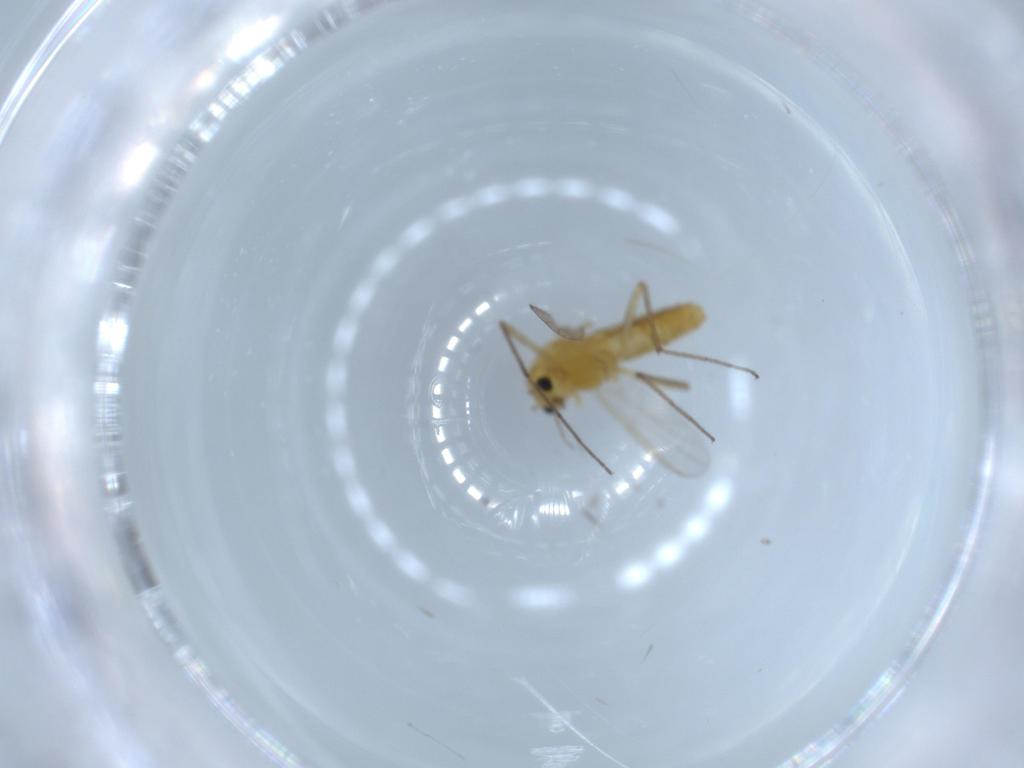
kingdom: Animalia
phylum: Arthropoda
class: Insecta
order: Diptera
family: Chironomidae
